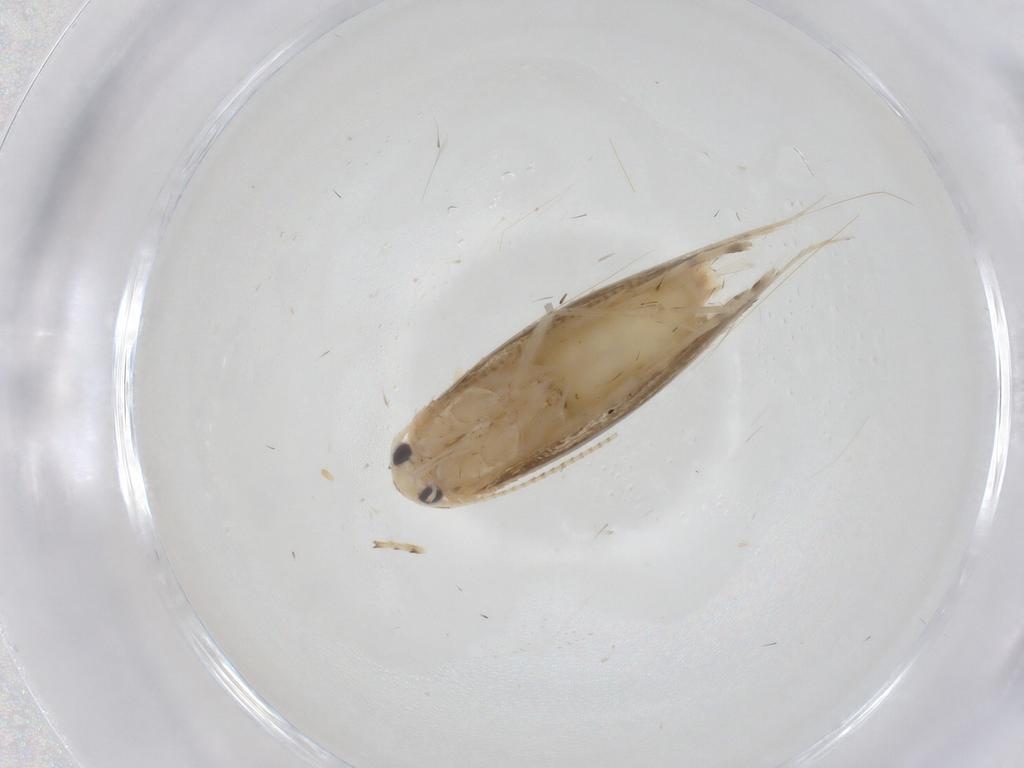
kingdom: Animalia
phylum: Arthropoda
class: Insecta
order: Lepidoptera
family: Gracillariidae
